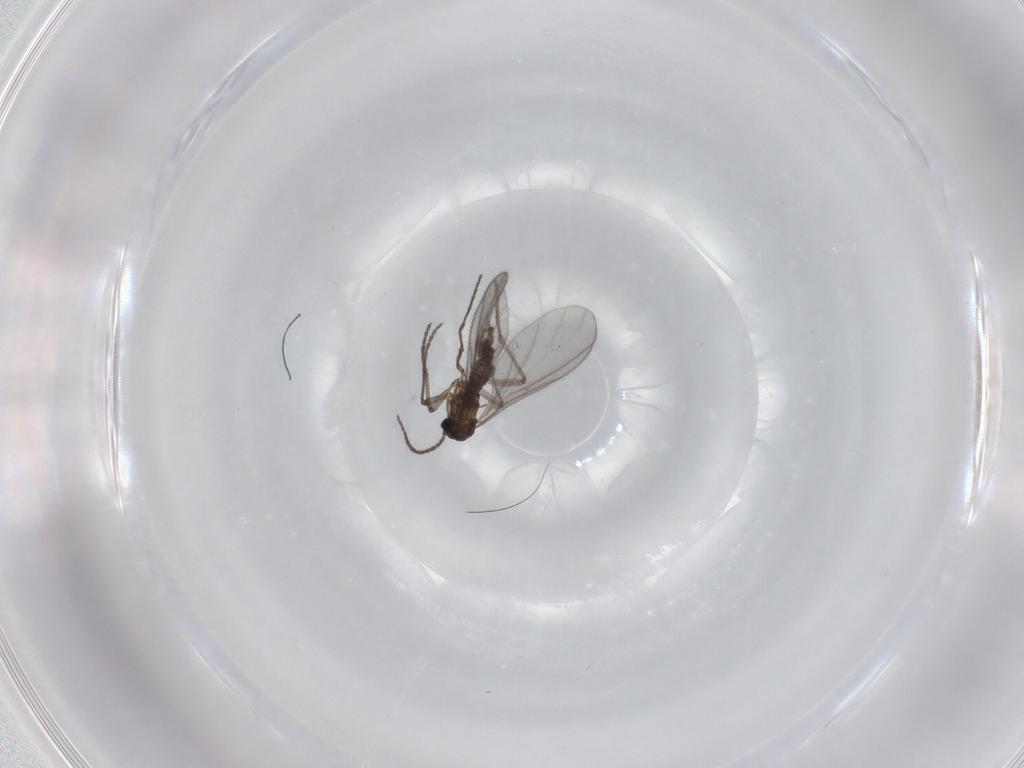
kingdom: Animalia
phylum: Arthropoda
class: Insecta
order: Diptera
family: Sciaridae
